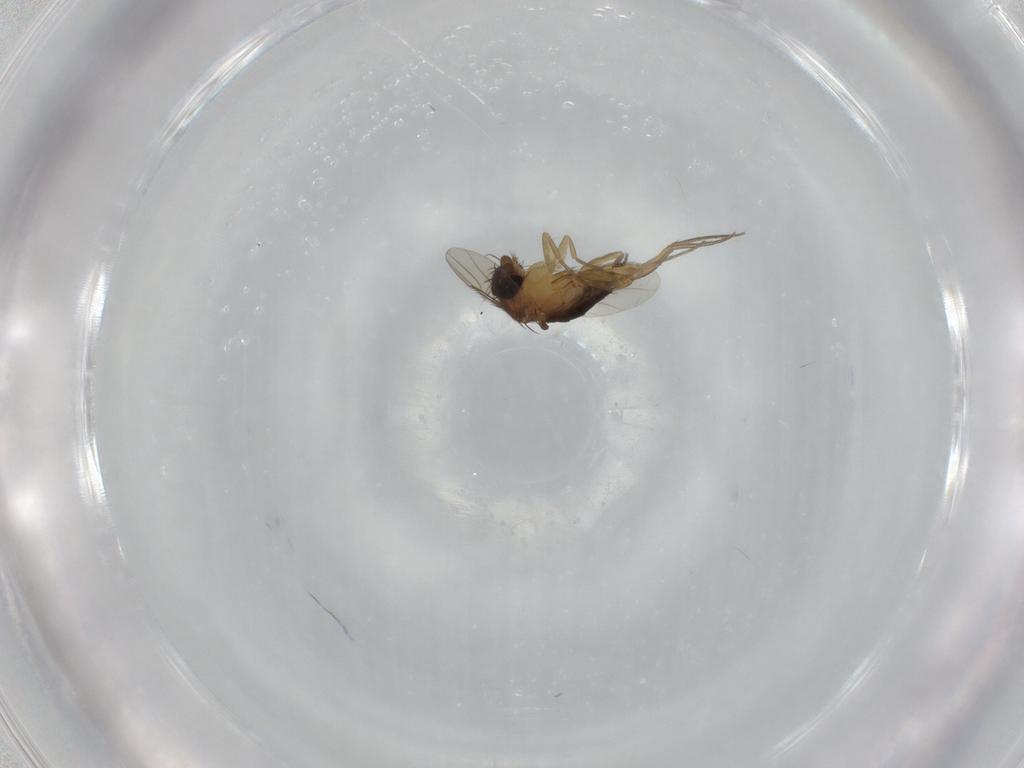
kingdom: Animalia
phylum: Arthropoda
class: Insecta
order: Diptera
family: Phoridae
